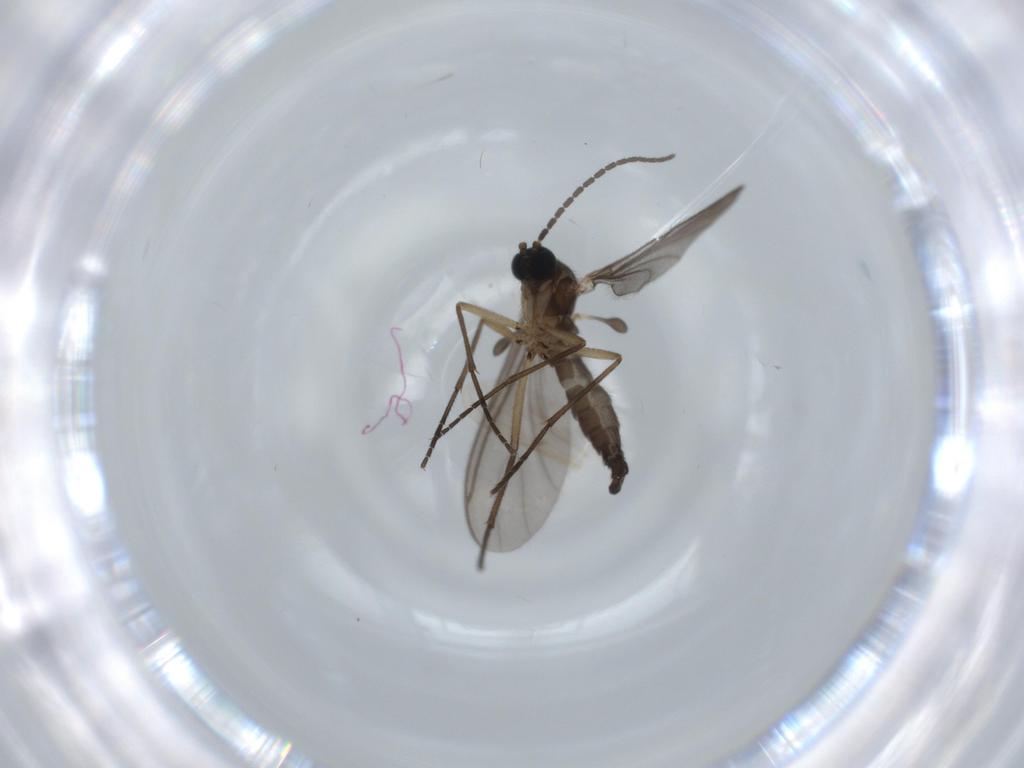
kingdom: Animalia
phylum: Arthropoda
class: Insecta
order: Diptera
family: Sciaridae
